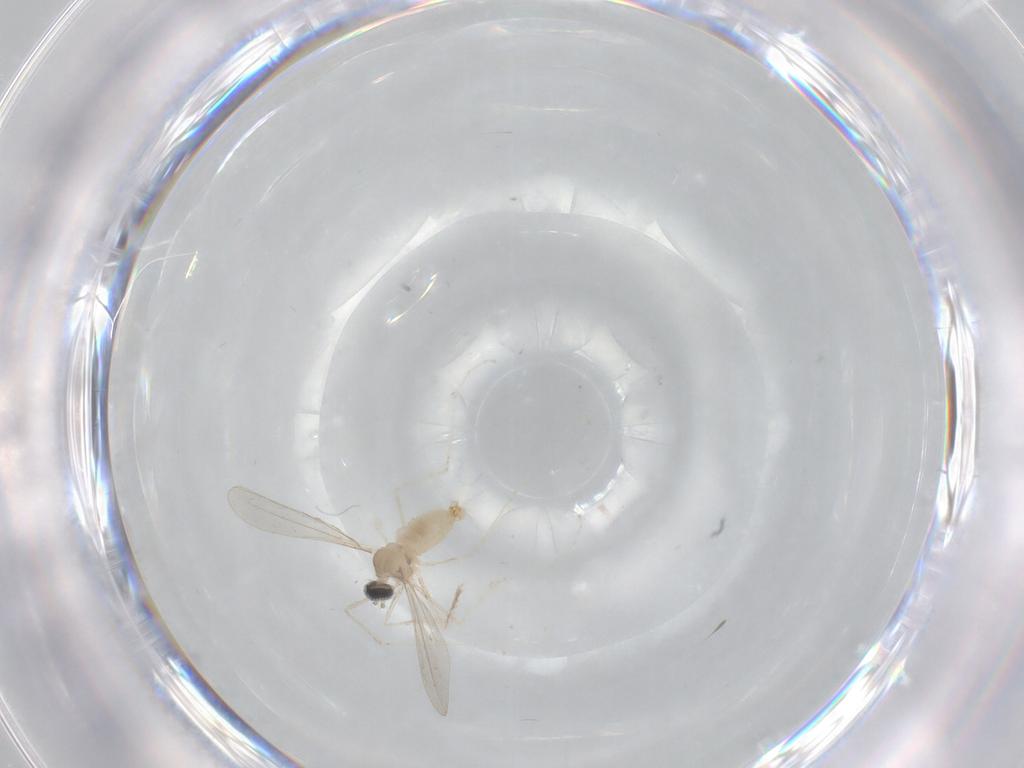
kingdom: Animalia
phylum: Arthropoda
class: Insecta
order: Diptera
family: Cecidomyiidae
